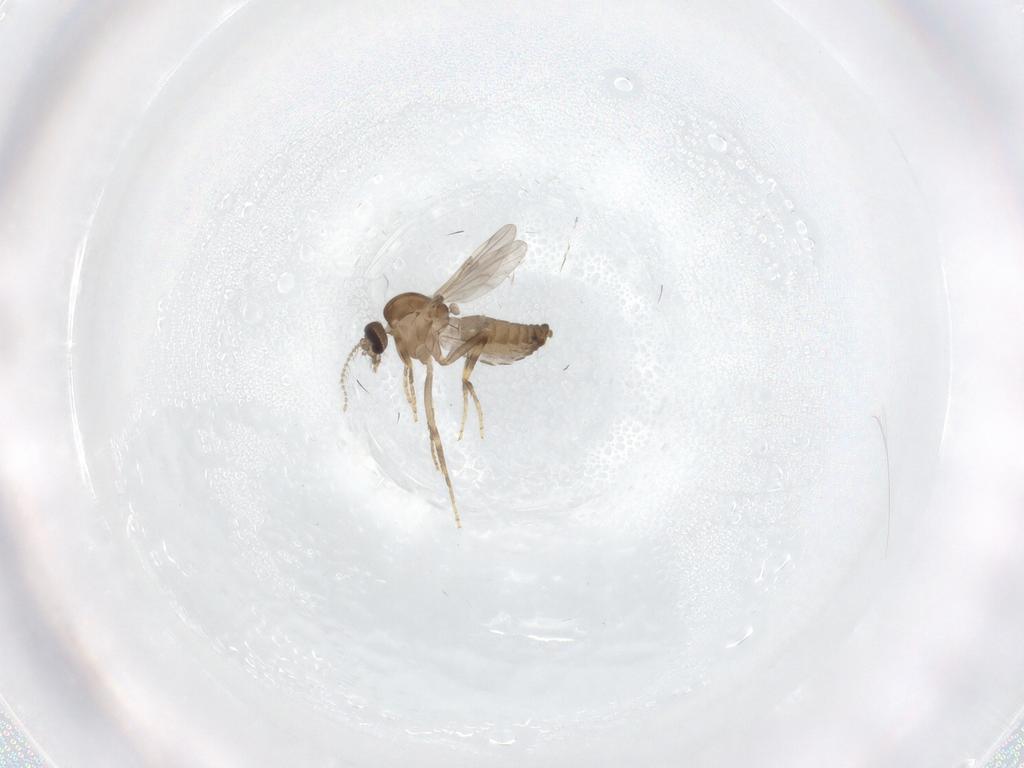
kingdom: Animalia
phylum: Arthropoda
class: Insecta
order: Diptera
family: Ceratopogonidae
